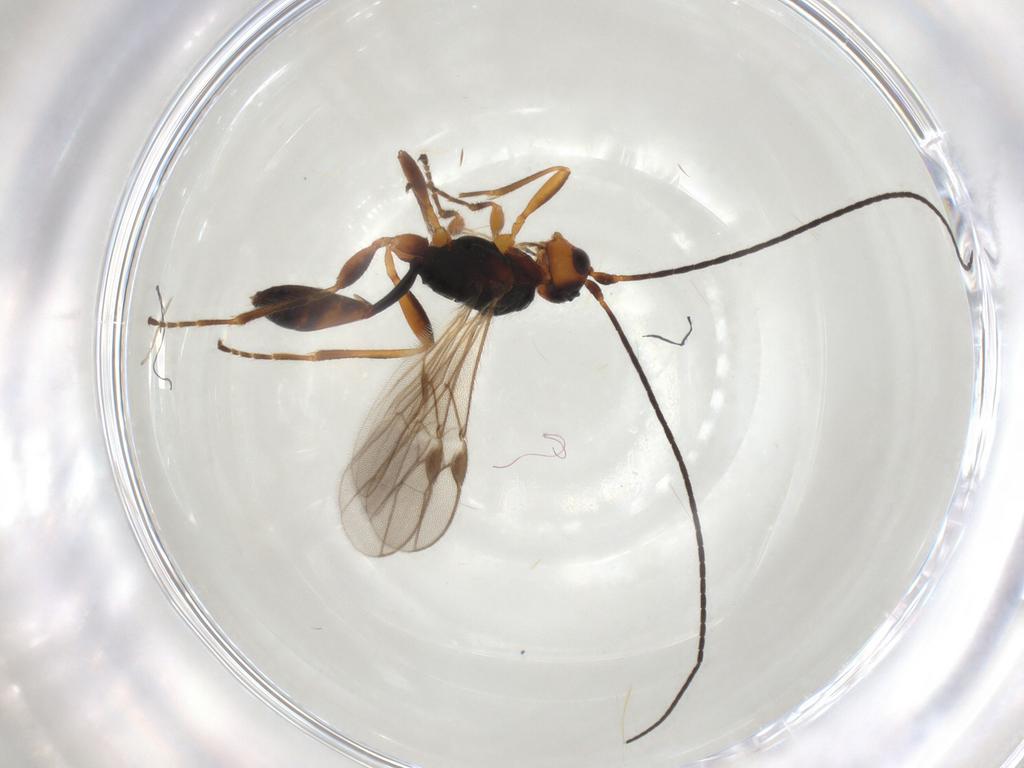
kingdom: Animalia
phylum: Arthropoda
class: Insecta
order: Hymenoptera
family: Braconidae
